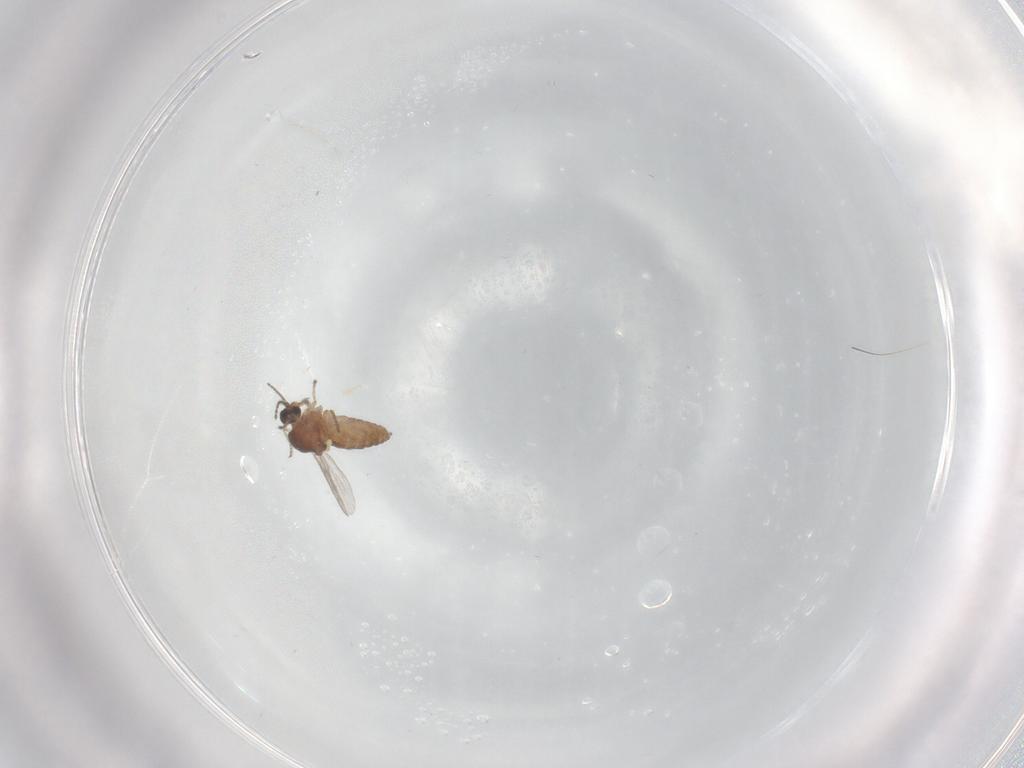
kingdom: Animalia
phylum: Arthropoda
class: Insecta
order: Diptera
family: Ceratopogonidae
